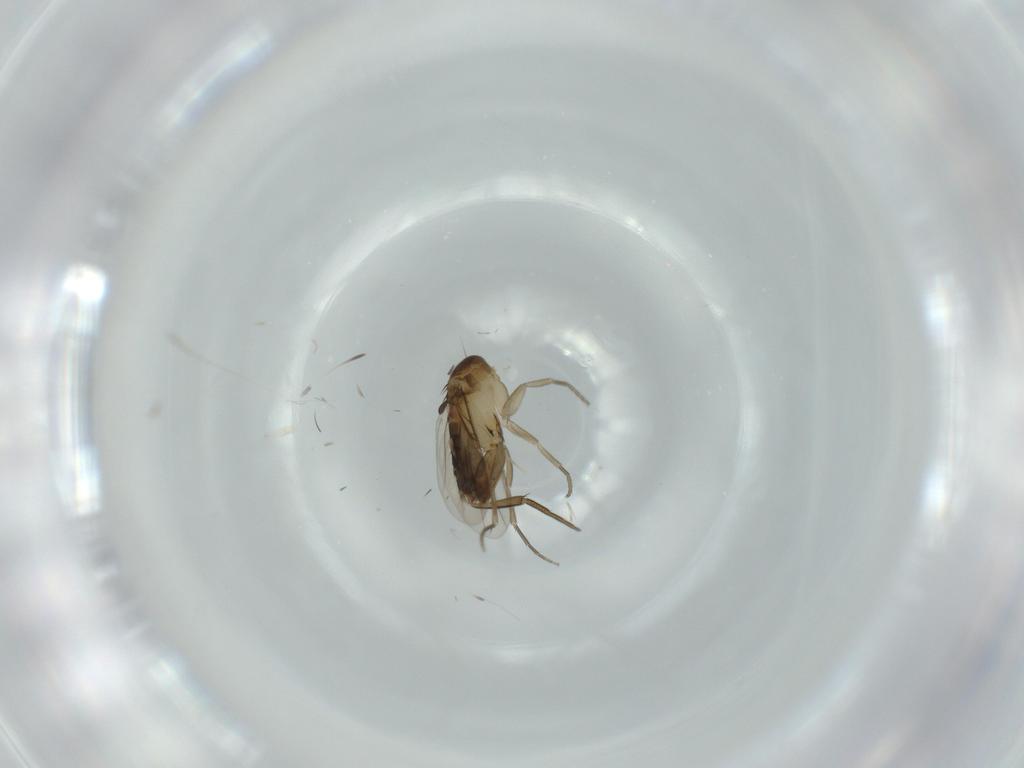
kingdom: Animalia
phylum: Arthropoda
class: Insecta
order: Diptera
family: Phoridae
